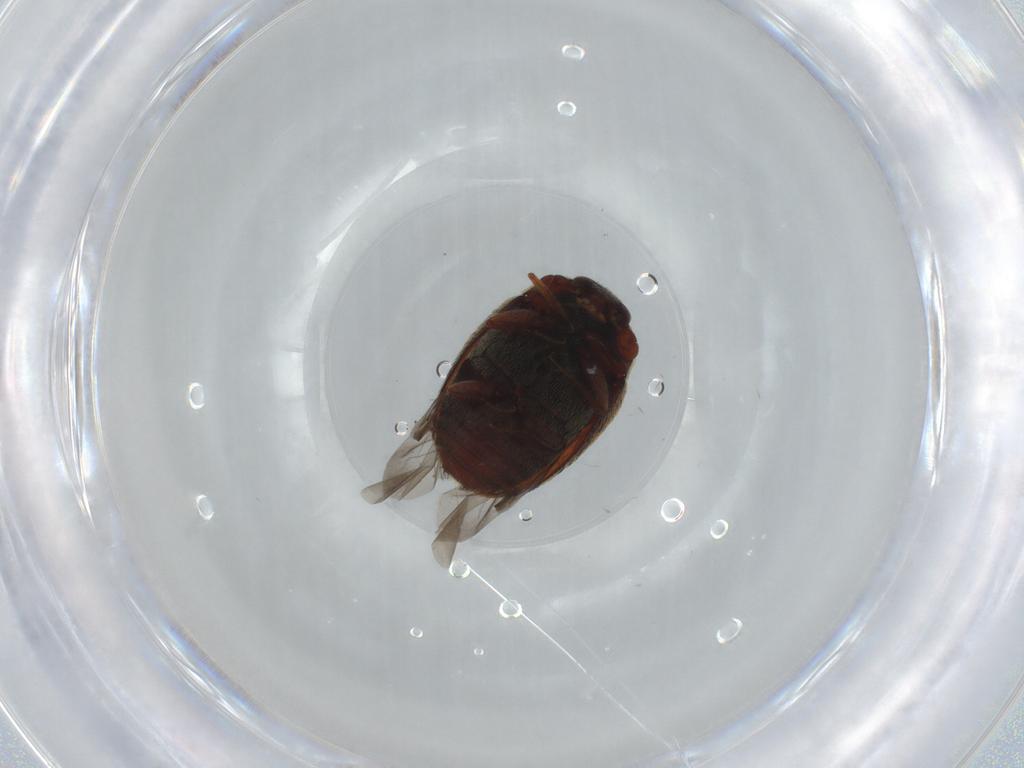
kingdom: Animalia
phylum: Arthropoda
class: Insecta
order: Coleoptera
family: Dermestidae
